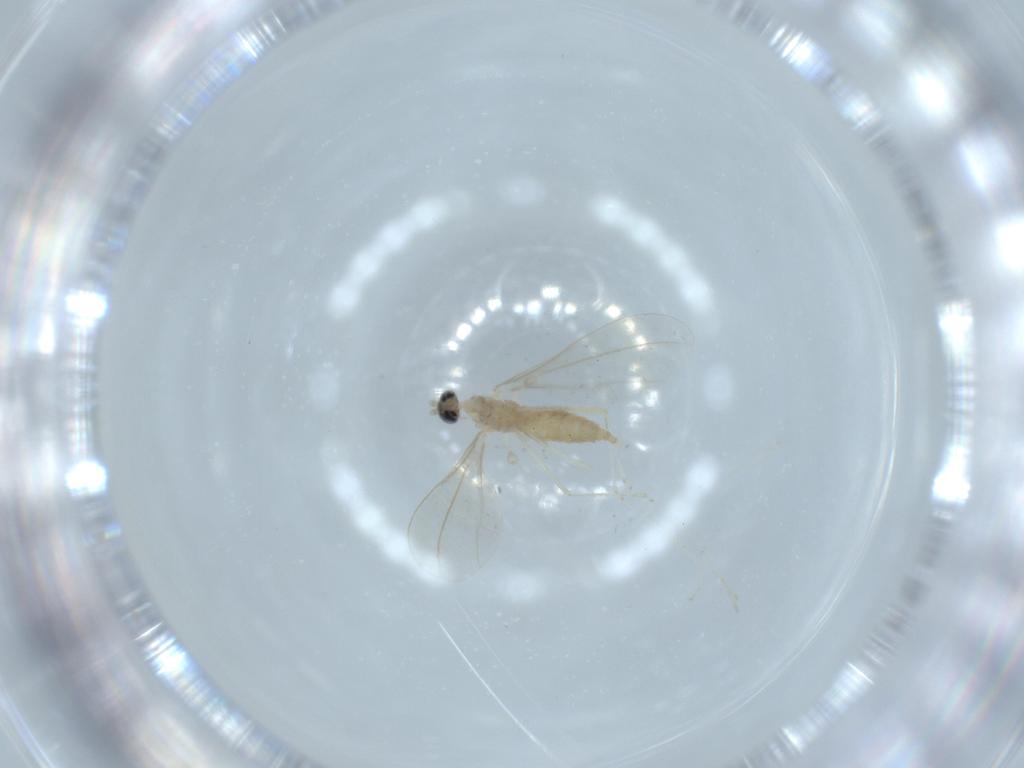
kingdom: Animalia
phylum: Arthropoda
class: Insecta
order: Diptera
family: Cecidomyiidae
